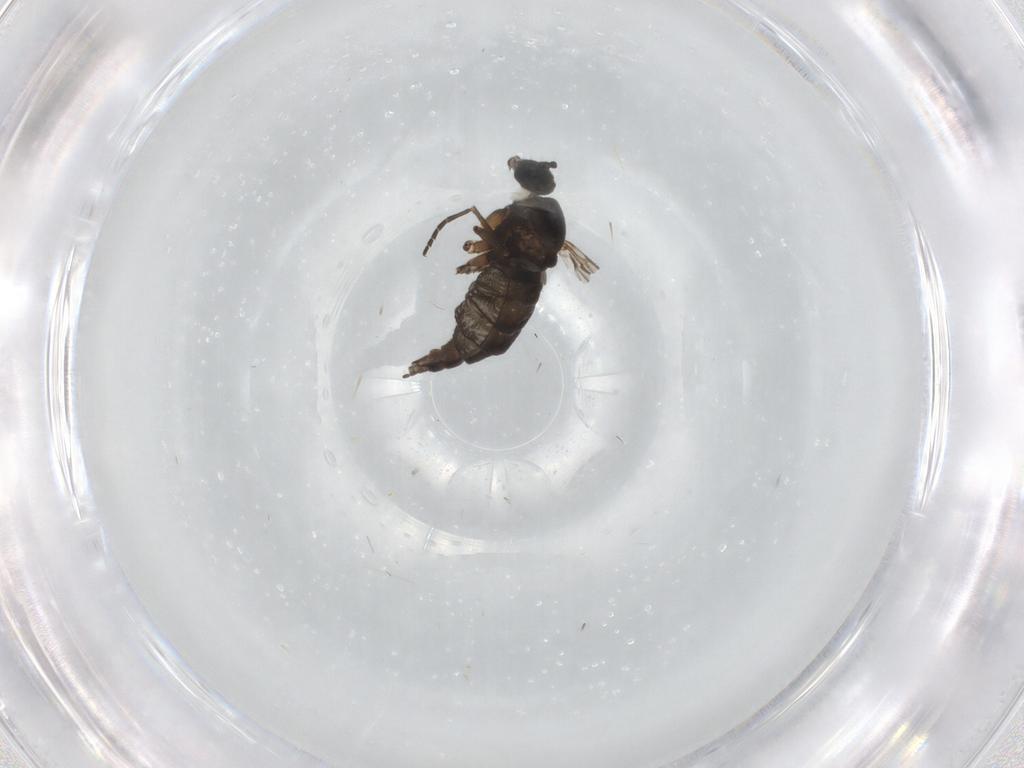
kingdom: Animalia
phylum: Arthropoda
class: Insecta
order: Diptera
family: Sciaridae
